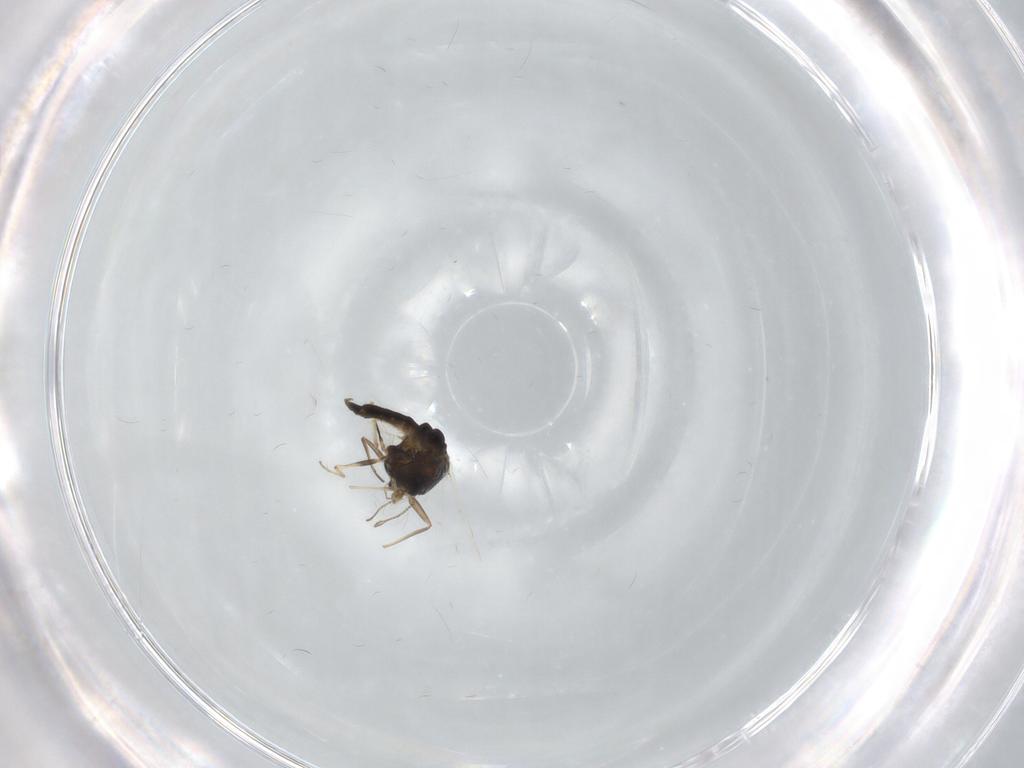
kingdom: Animalia
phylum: Arthropoda
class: Insecta
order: Diptera
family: Chironomidae
